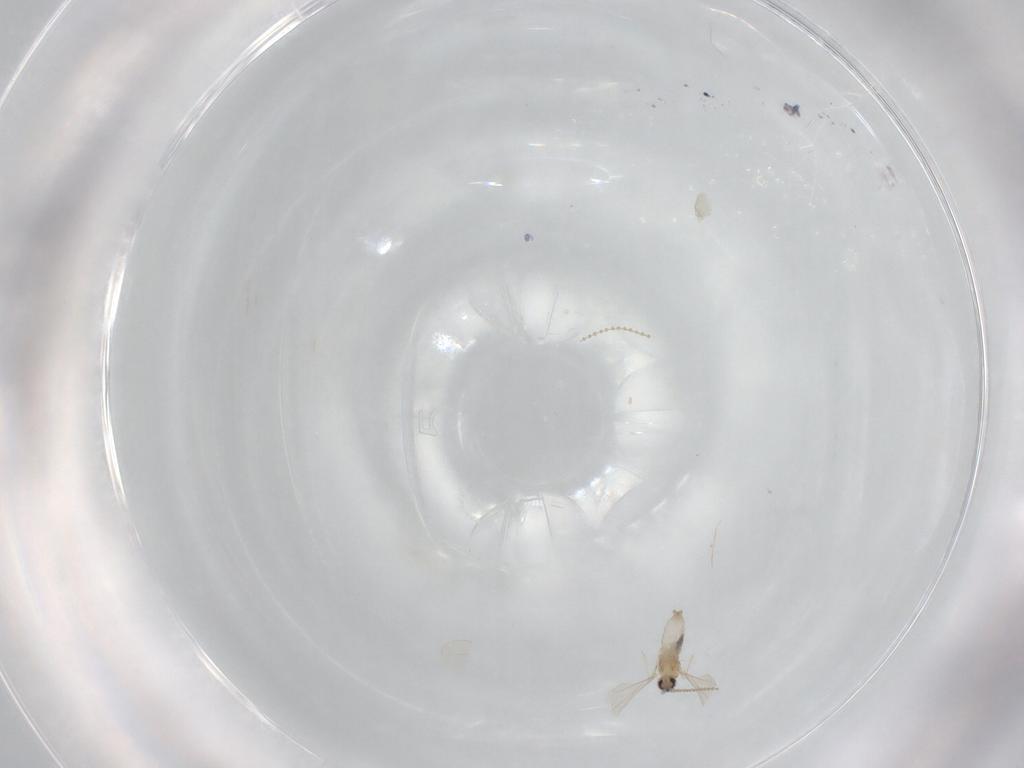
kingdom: Animalia
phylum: Arthropoda
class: Insecta
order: Diptera
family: Cecidomyiidae
